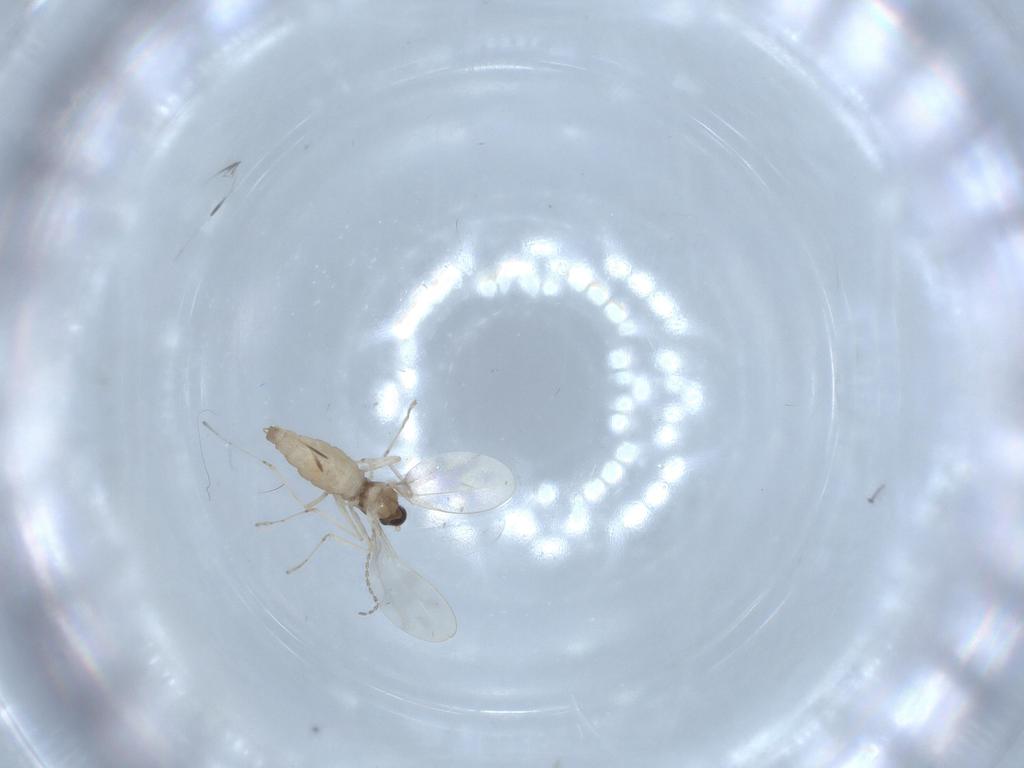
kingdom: Animalia
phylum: Arthropoda
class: Insecta
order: Diptera
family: Cecidomyiidae
